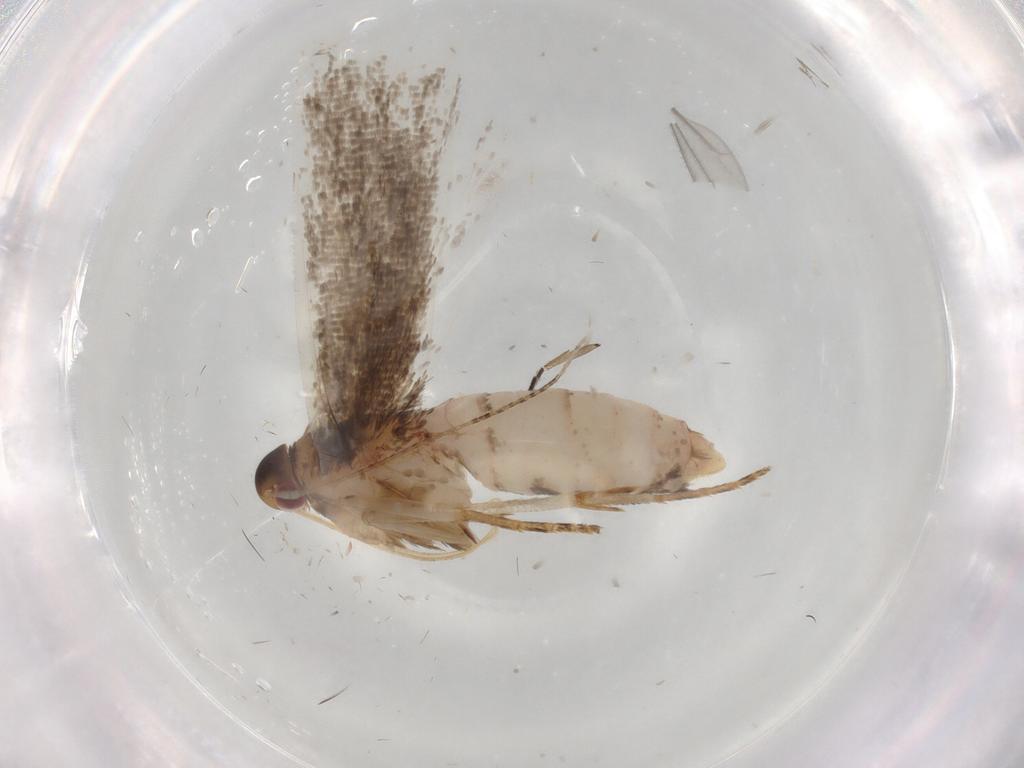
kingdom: Animalia
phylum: Arthropoda
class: Insecta
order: Lepidoptera
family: Gelechiidae
